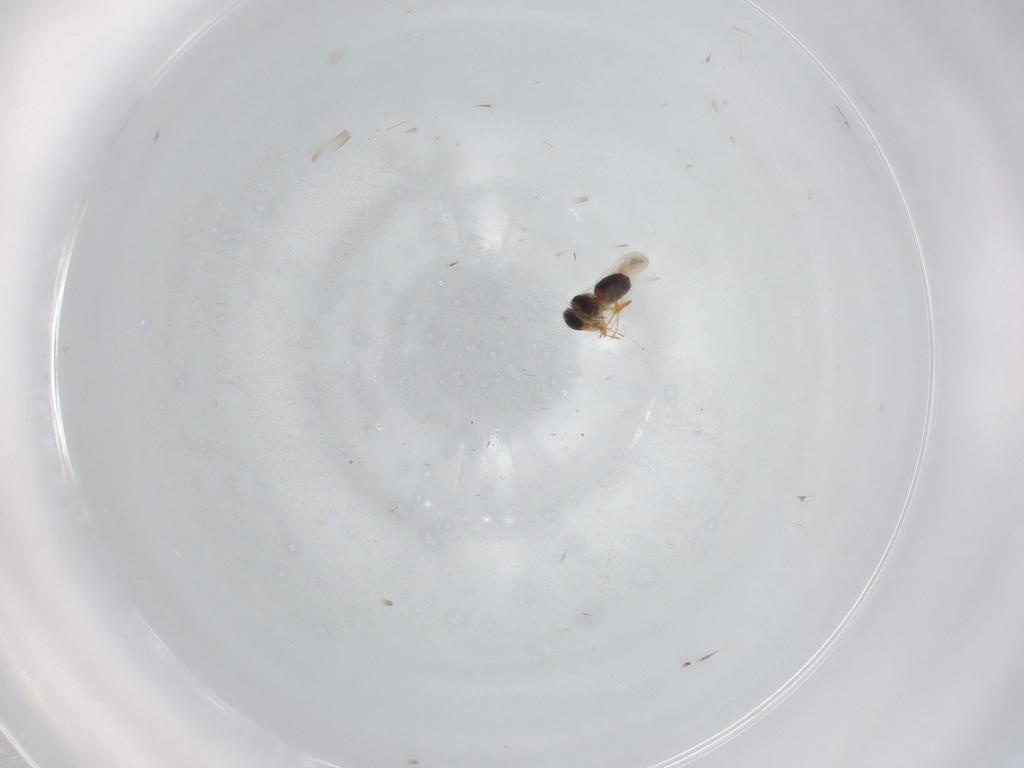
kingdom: Animalia
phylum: Arthropoda
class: Insecta
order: Hymenoptera
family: Platygastridae
